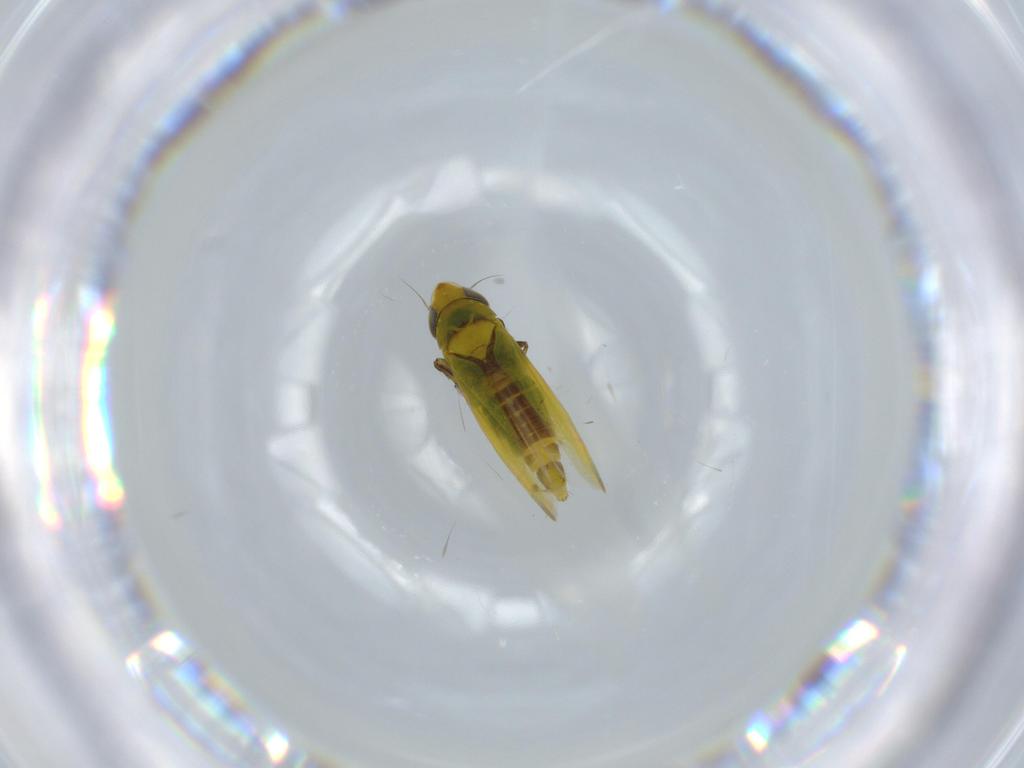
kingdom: Animalia
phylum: Arthropoda
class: Insecta
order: Hemiptera
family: Cicadellidae
